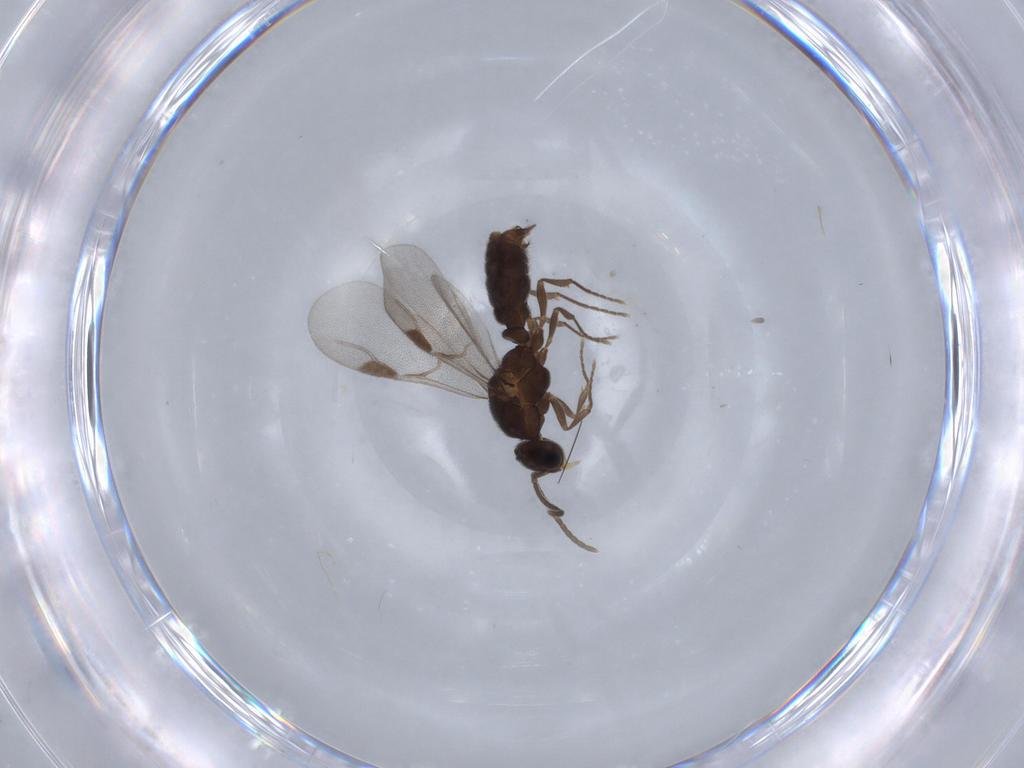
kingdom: Animalia
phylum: Arthropoda
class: Insecta
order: Hymenoptera
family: Formicidae
